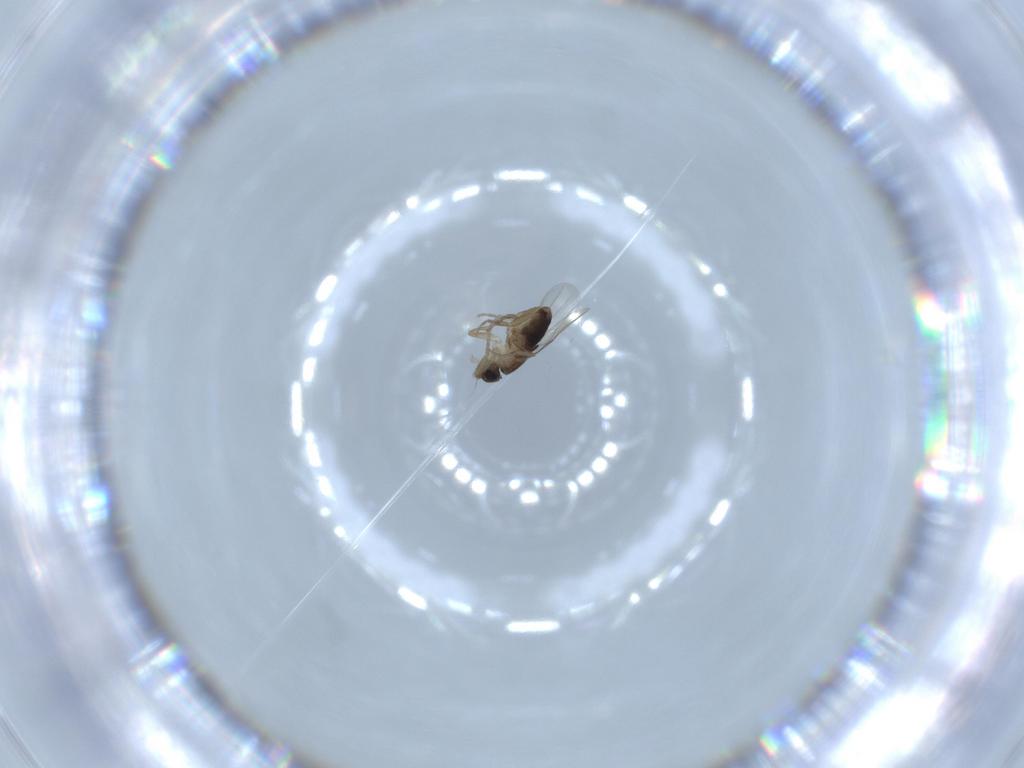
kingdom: Animalia
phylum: Arthropoda
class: Insecta
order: Diptera
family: Phoridae
